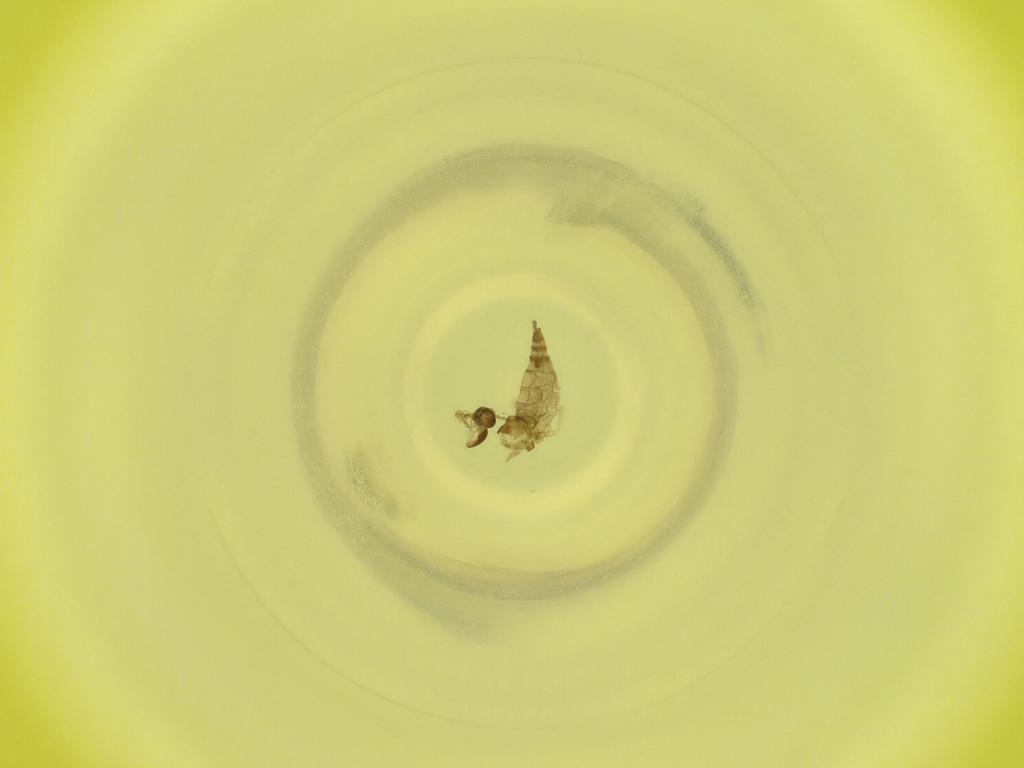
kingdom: Animalia
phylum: Arthropoda
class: Insecta
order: Diptera
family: Cecidomyiidae
